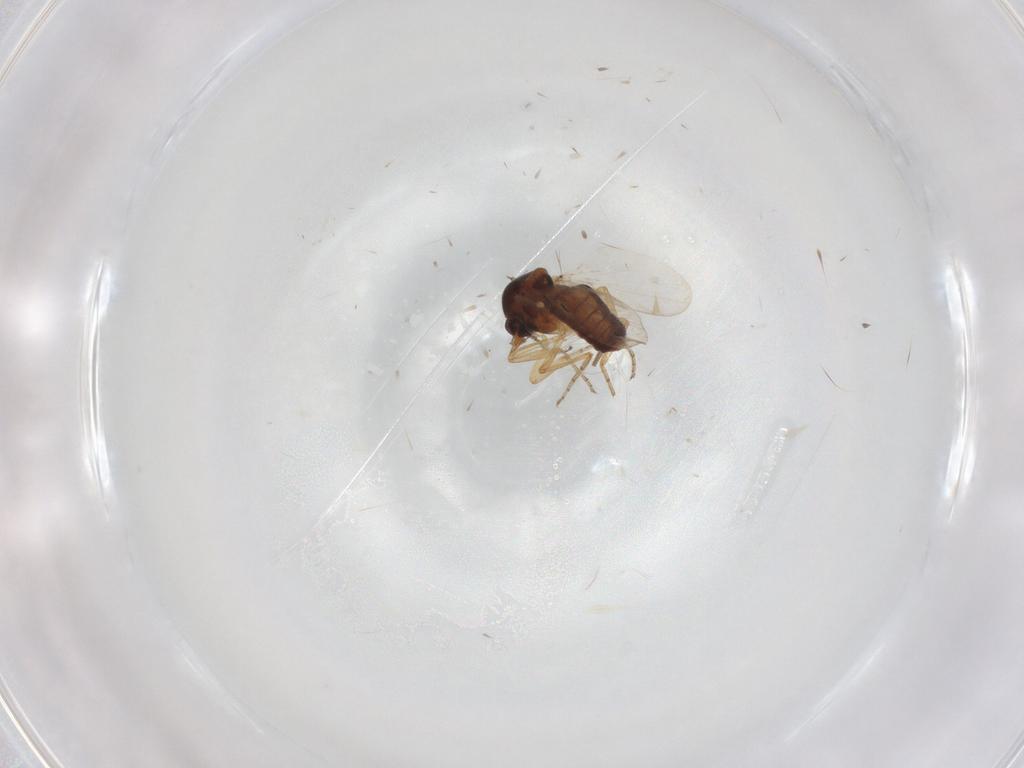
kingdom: Animalia
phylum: Arthropoda
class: Insecta
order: Diptera
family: Ceratopogonidae
